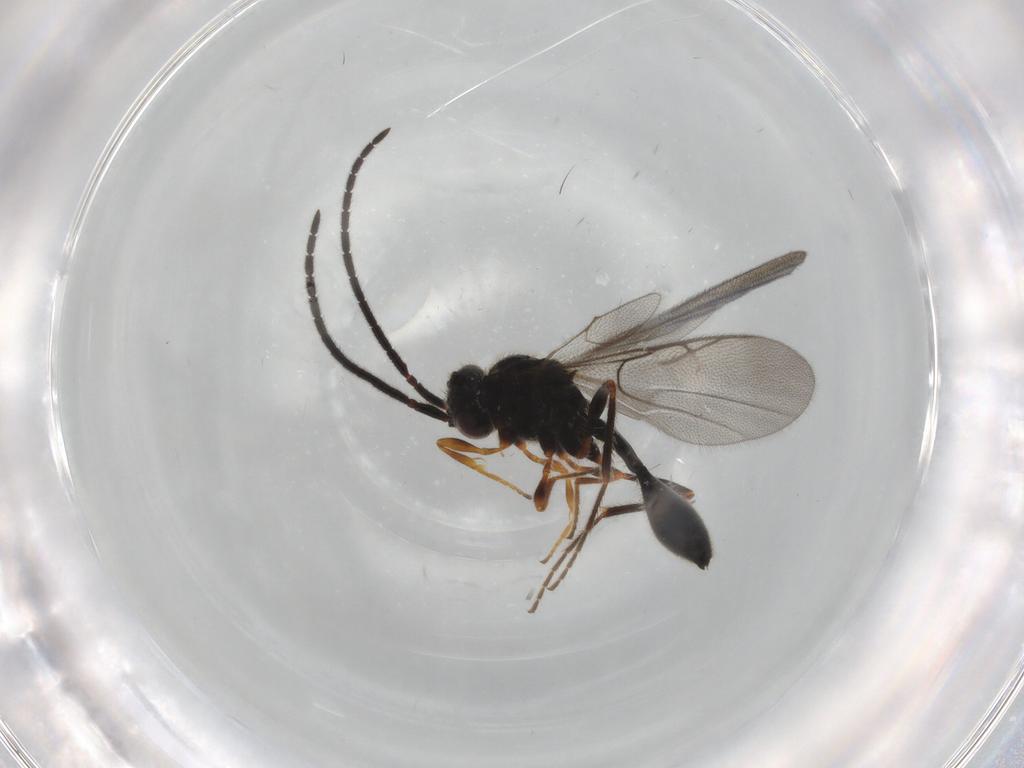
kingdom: Animalia
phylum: Arthropoda
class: Insecta
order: Hymenoptera
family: Diapriidae
